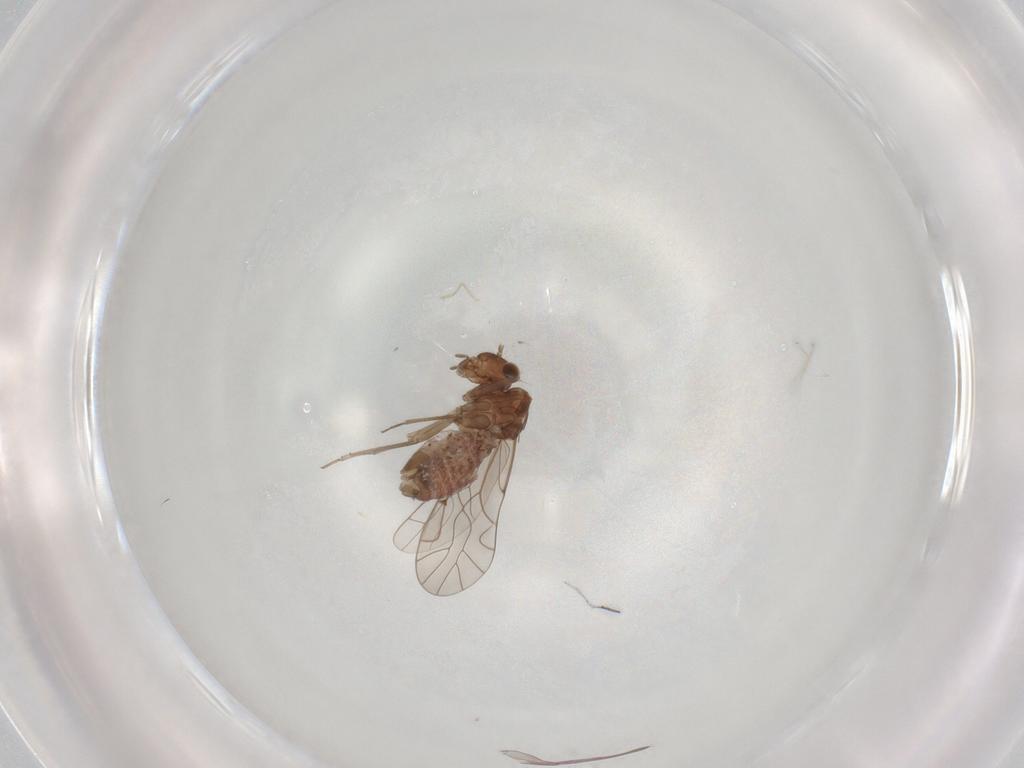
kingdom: Animalia
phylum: Arthropoda
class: Insecta
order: Psocodea
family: Lachesillidae
